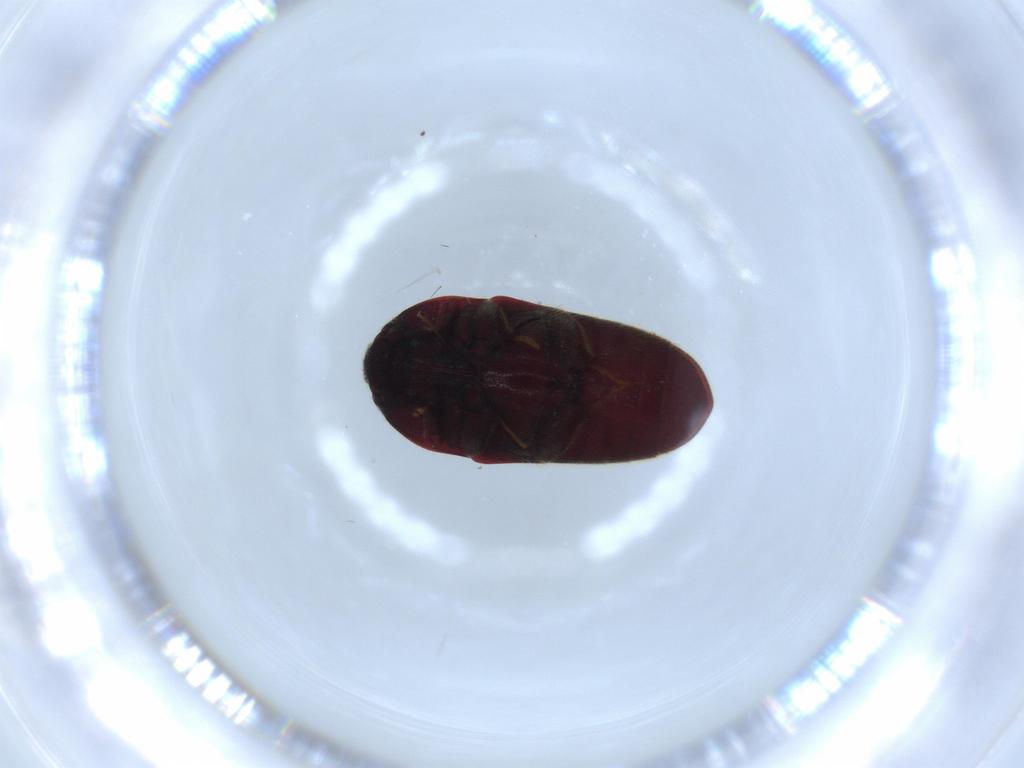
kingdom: Animalia
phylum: Arthropoda
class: Insecta
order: Coleoptera
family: Throscidae
